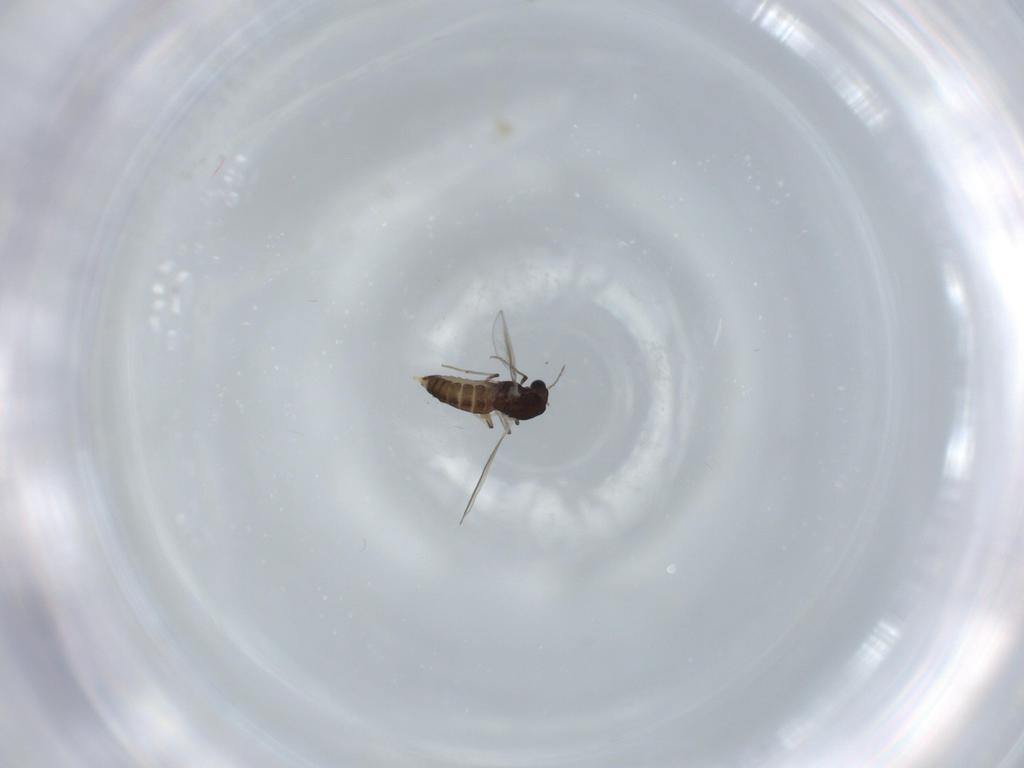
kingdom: Animalia
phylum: Arthropoda
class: Insecta
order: Diptera
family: Chironomidae
